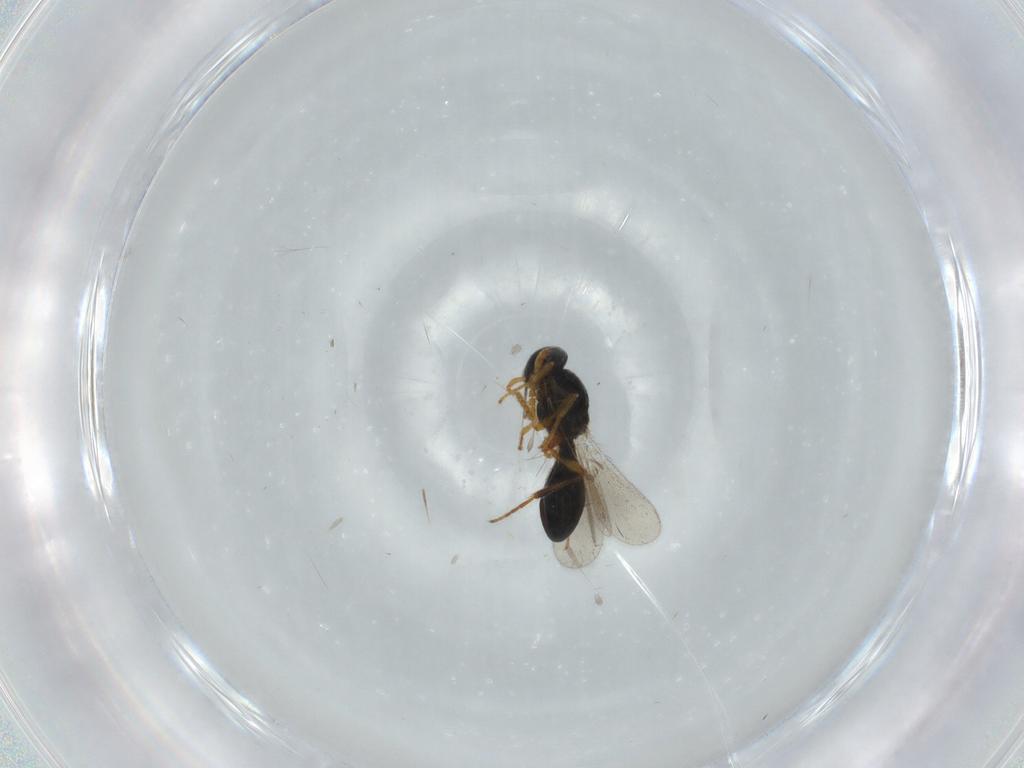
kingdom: Animalia
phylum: Arthropoda
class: Insecta
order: Hymenoptera
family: Platygastridae
